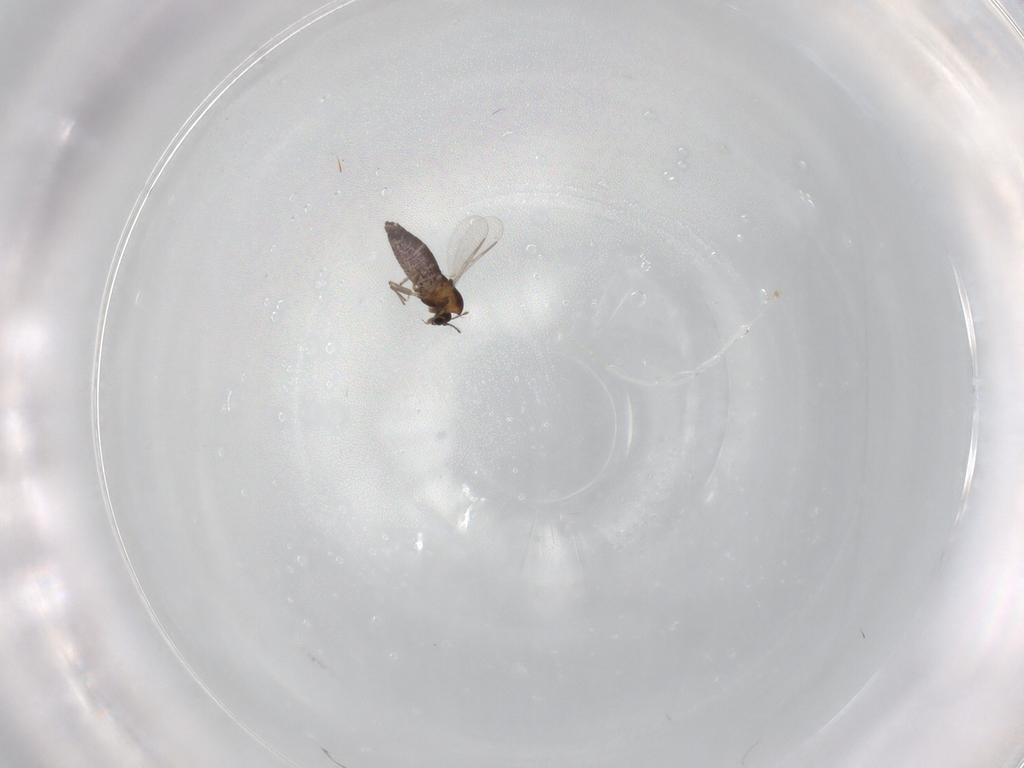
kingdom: Animalia
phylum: Arthropoda
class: Insecta
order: Diptera
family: Chironomidae
